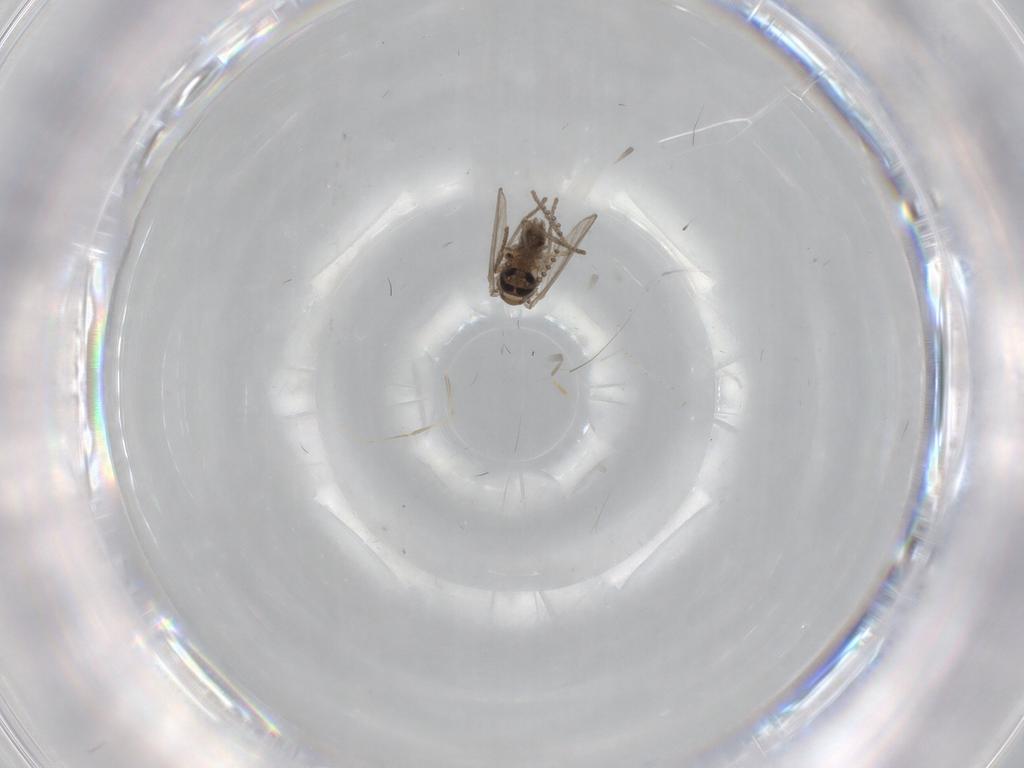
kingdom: Animalia
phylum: Arthropoda
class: Insecta
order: Diptera
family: Psychodidae
